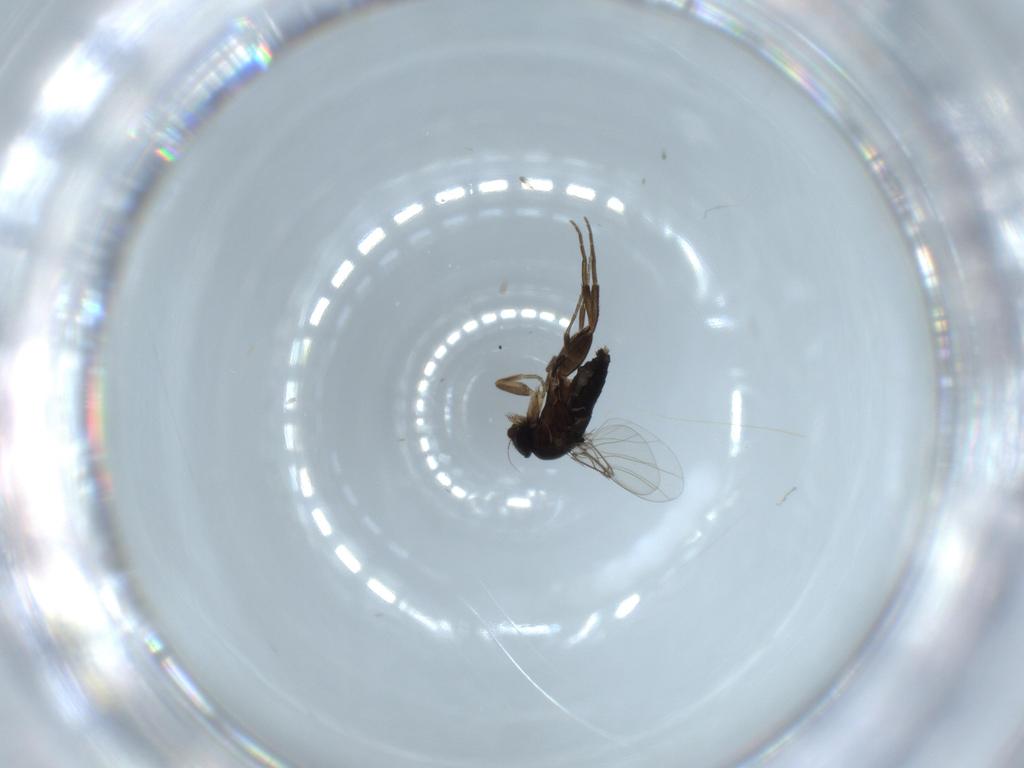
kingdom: Animalia
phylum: Arthropoda
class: Insecta
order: Diptera
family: Phoridae
